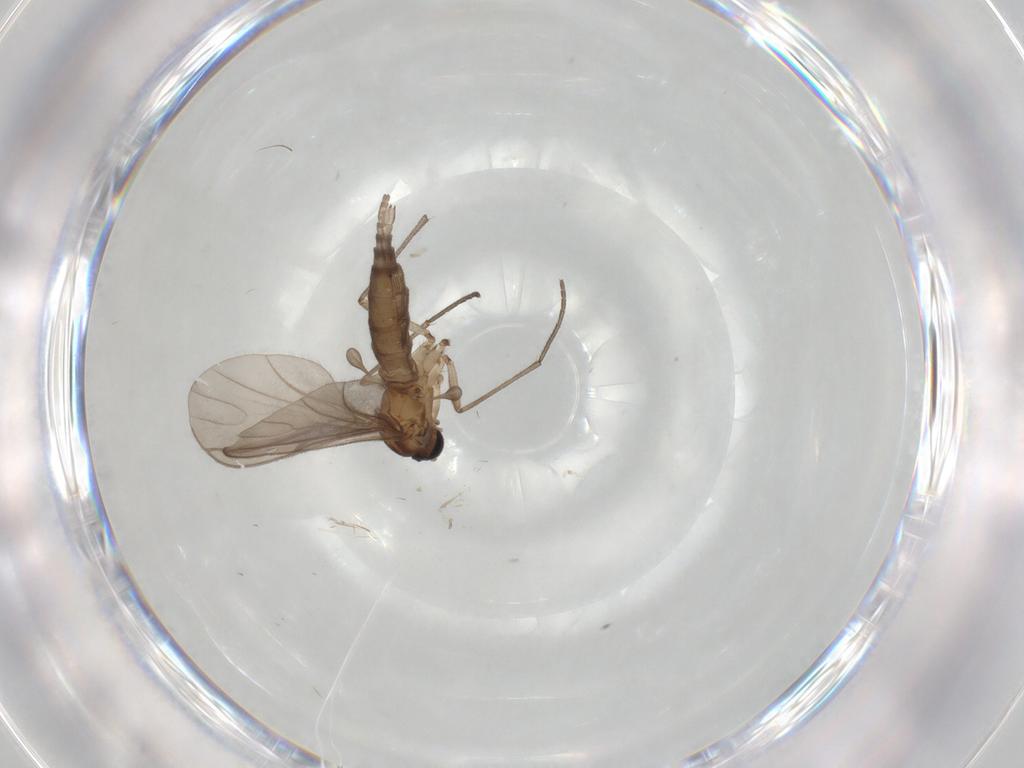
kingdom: Animalia
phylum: Arthropoda
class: Insecta
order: Diptera
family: Sciaridae
